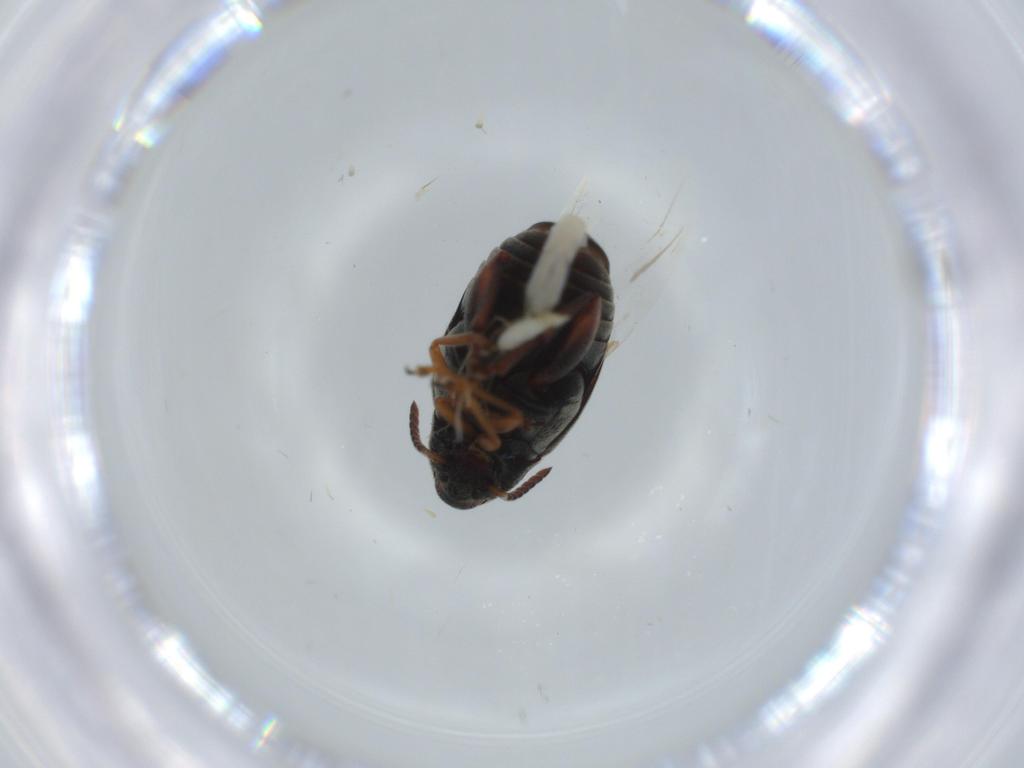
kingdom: Animalia
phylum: Arthropoda
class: Insecta
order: Coleoptera
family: Chrysomelidae
